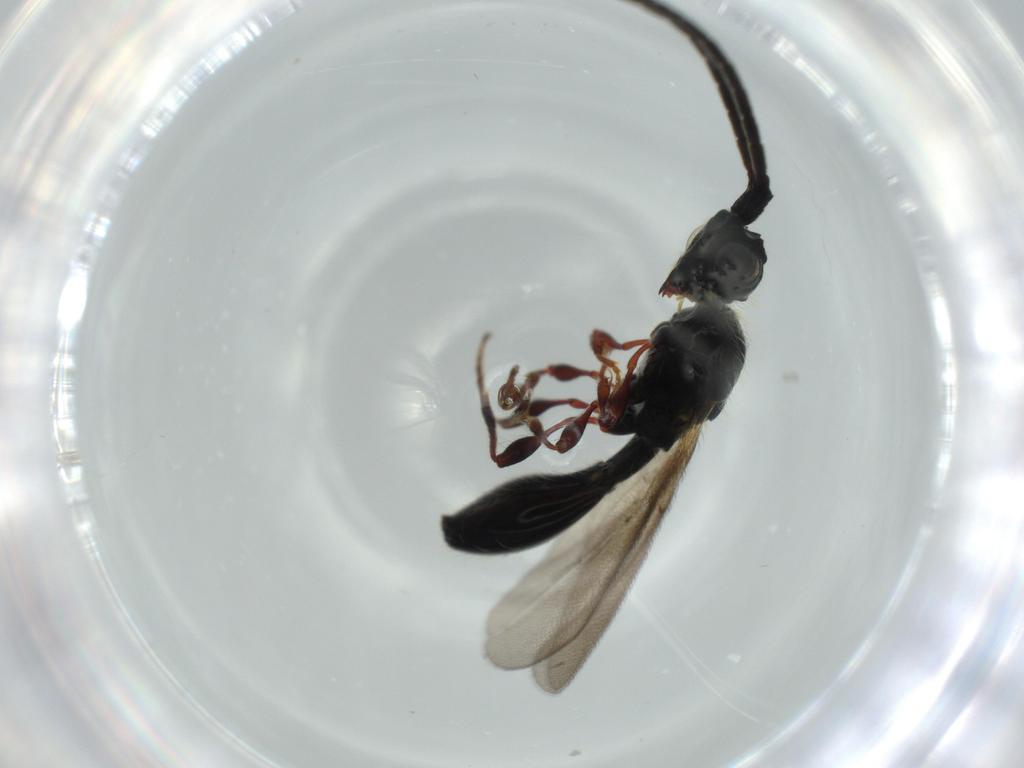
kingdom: Animalia
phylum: Arthropoda
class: Insecta
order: Hymenoptera
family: Diapriidae
